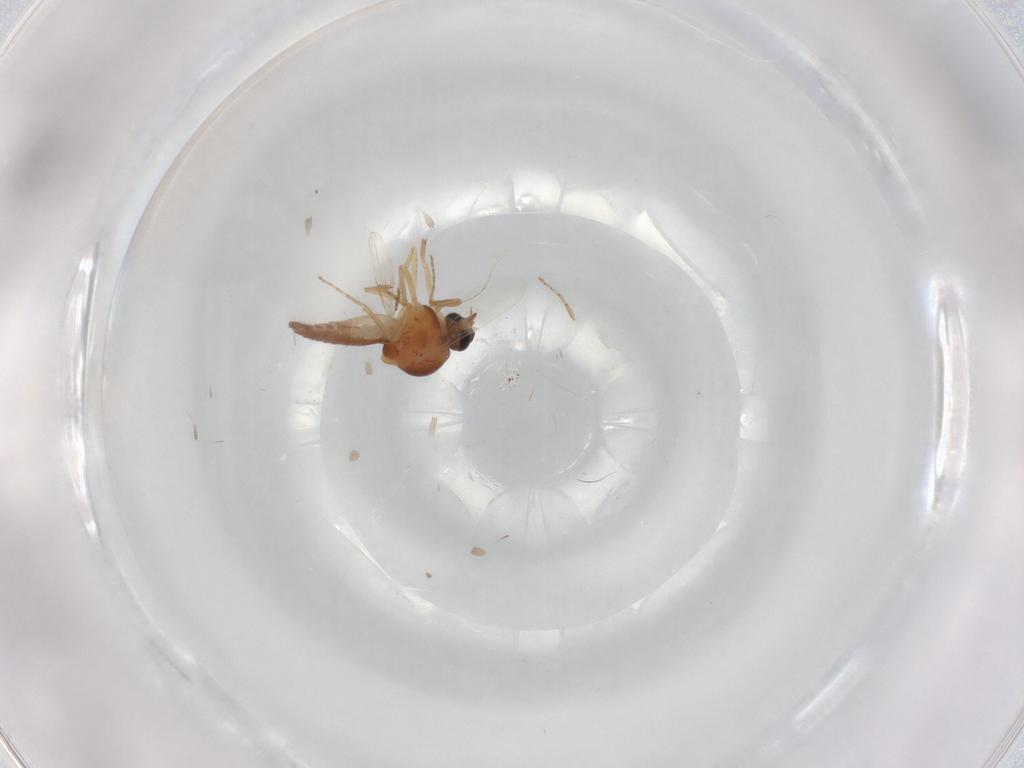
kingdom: Animalia
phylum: Arthropoda
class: Insecta
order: Diptera
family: Ceratopogonidae
